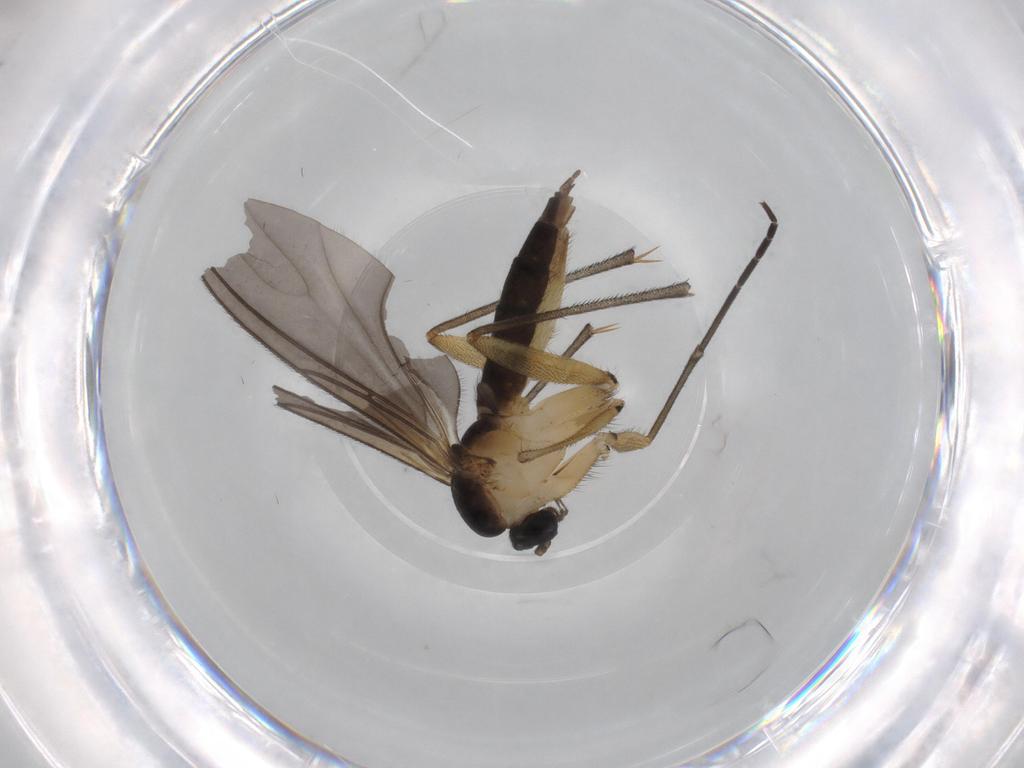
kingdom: Animalia
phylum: Arthropoda
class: Insecta
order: Diptera
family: Sciaridae
